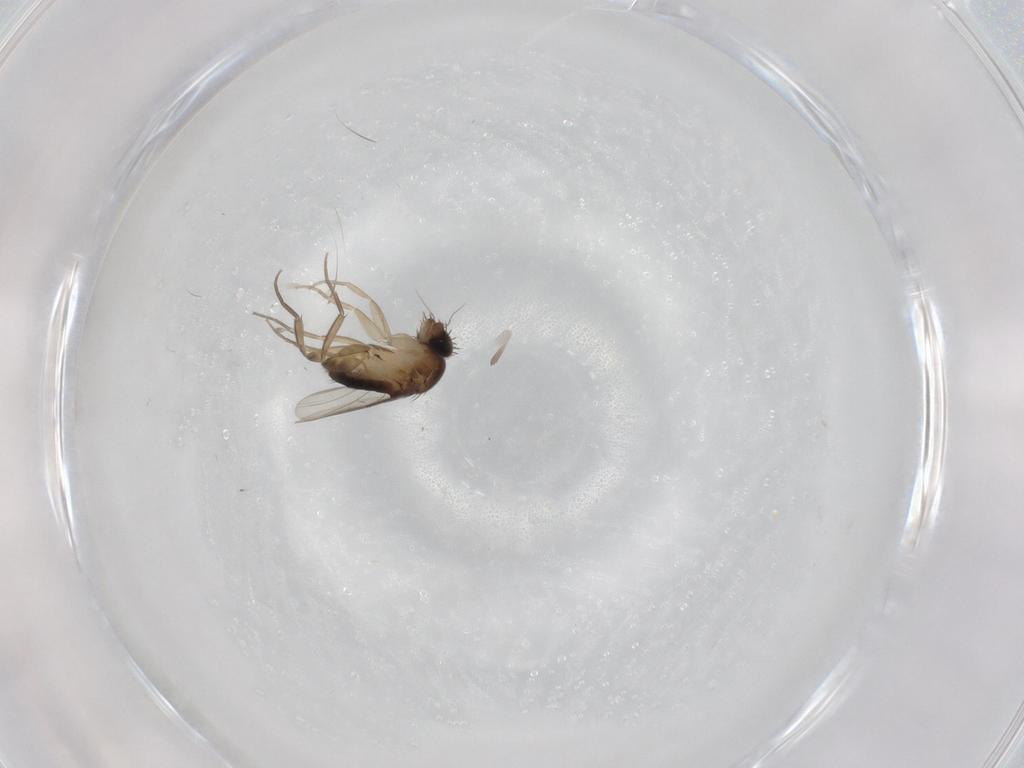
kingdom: Animalia
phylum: Arthropoda
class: Insecta
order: Diptera
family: Phoridae
